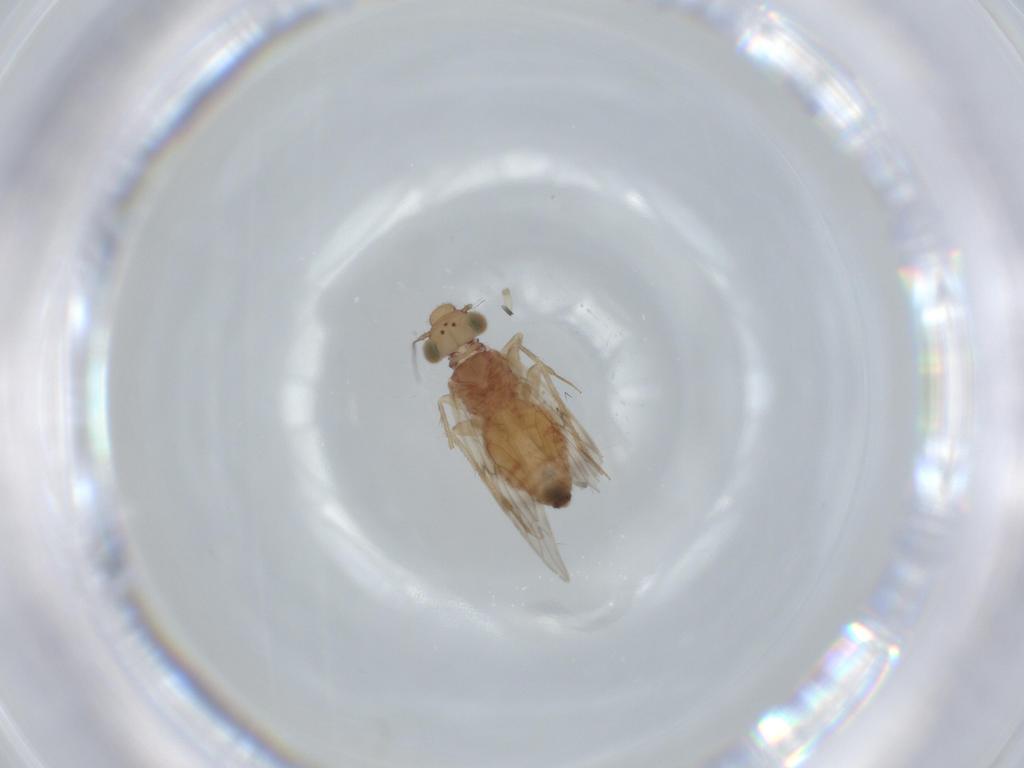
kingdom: Animalia
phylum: Arthropoda
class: Insecta
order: Psocodea
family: Lepidopsocidae
